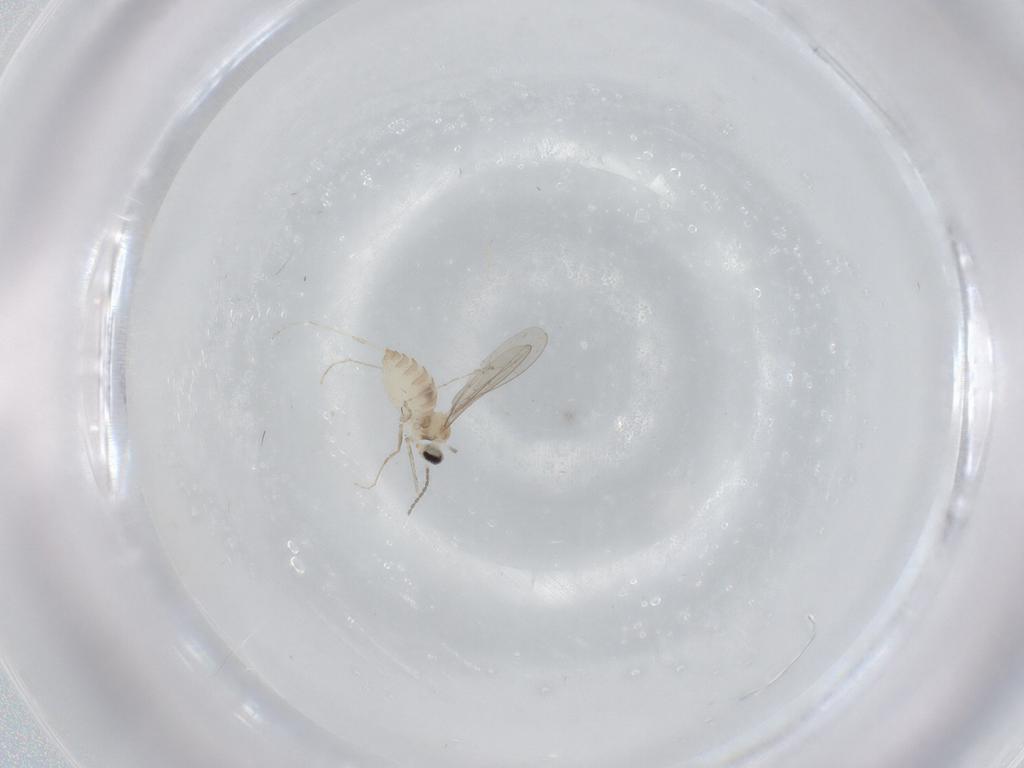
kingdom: Animalia
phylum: Arthropoda
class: Insecta
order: Diptera
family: Cecidomyiidae
